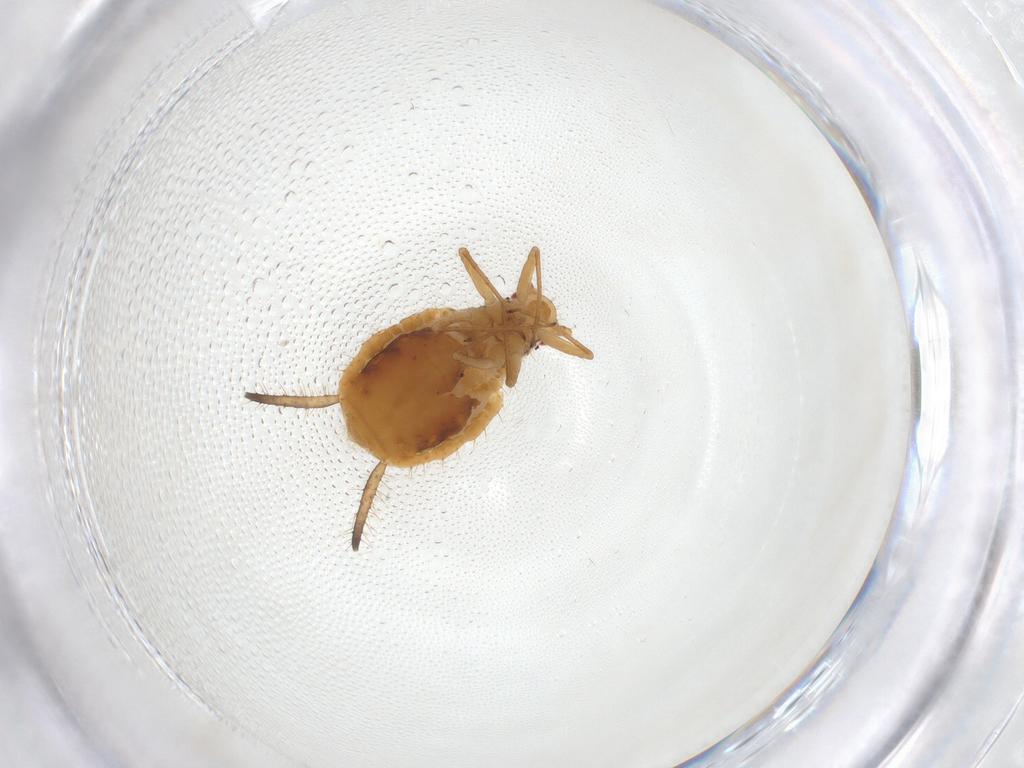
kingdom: Animalia
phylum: Arthropoda
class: Insecta
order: Hemiptera
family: Aphididae
